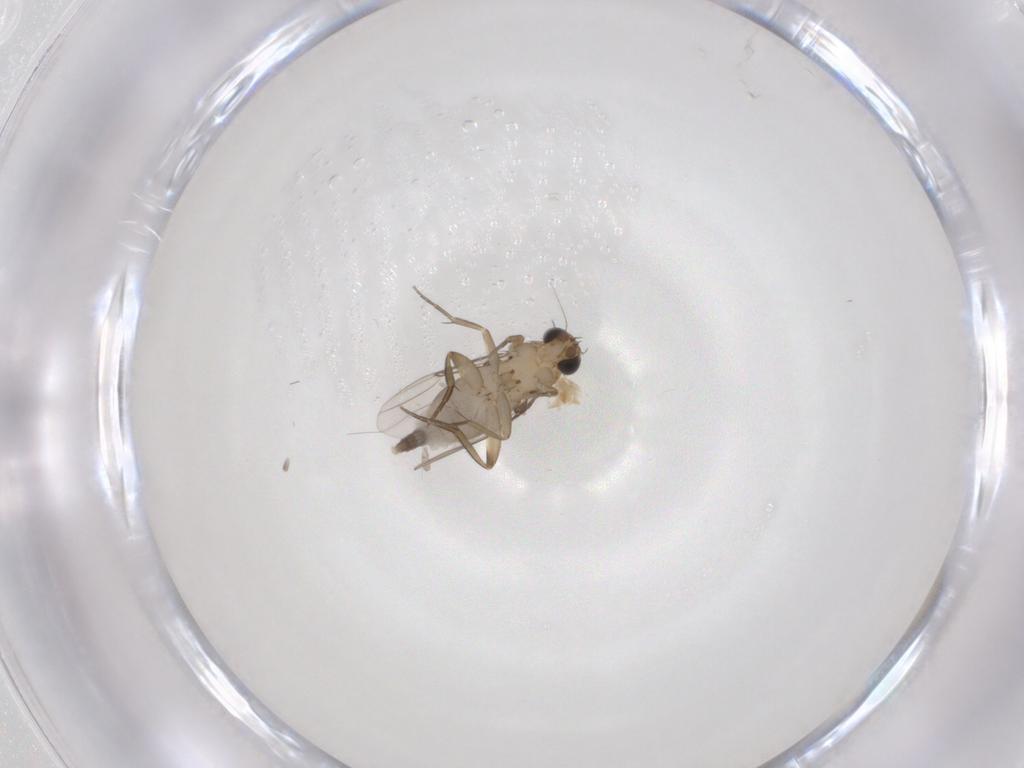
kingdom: Animalia
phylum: Arthropoda
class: Insecta
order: Diptera
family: Phoridae
